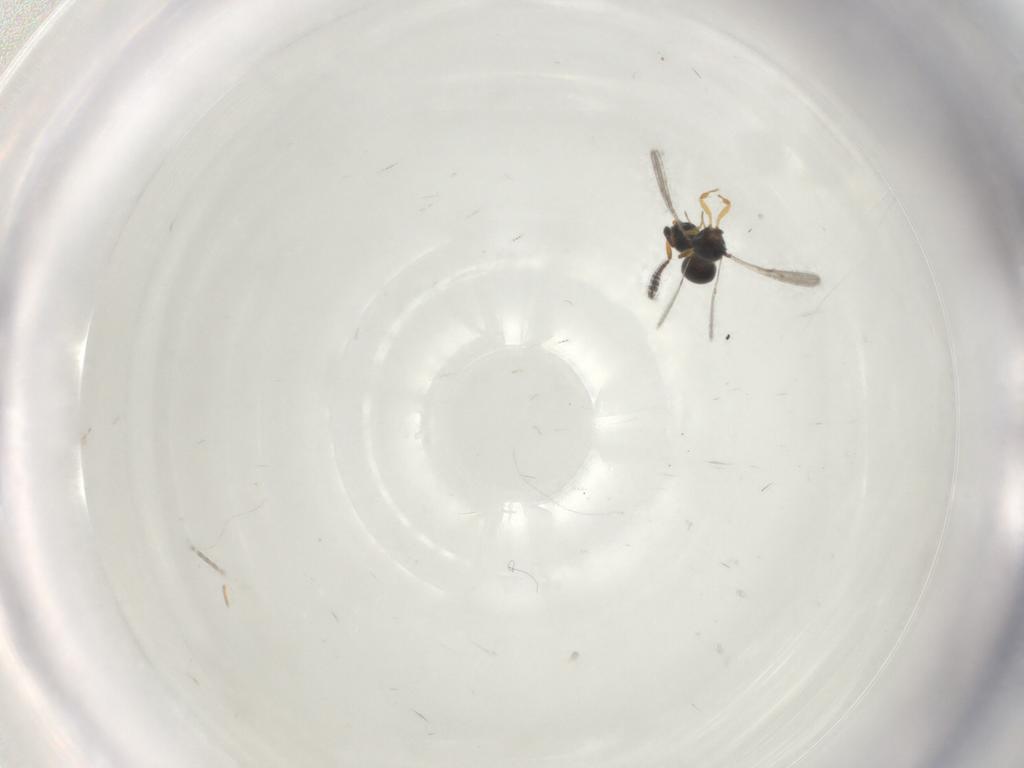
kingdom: Animalia
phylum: Arthropoda
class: Insecta
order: Hymenoptera
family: Scelionidae
